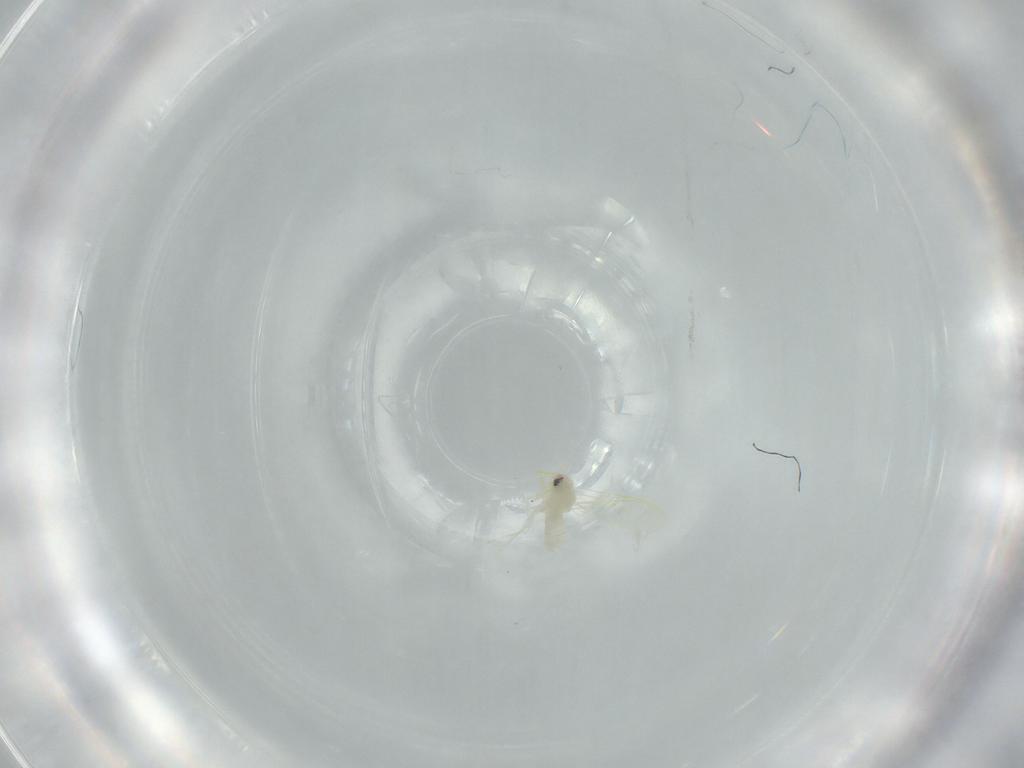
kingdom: Animalia
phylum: Arthropoda
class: Insecta
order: Hemiptera
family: Aleyrodidae
